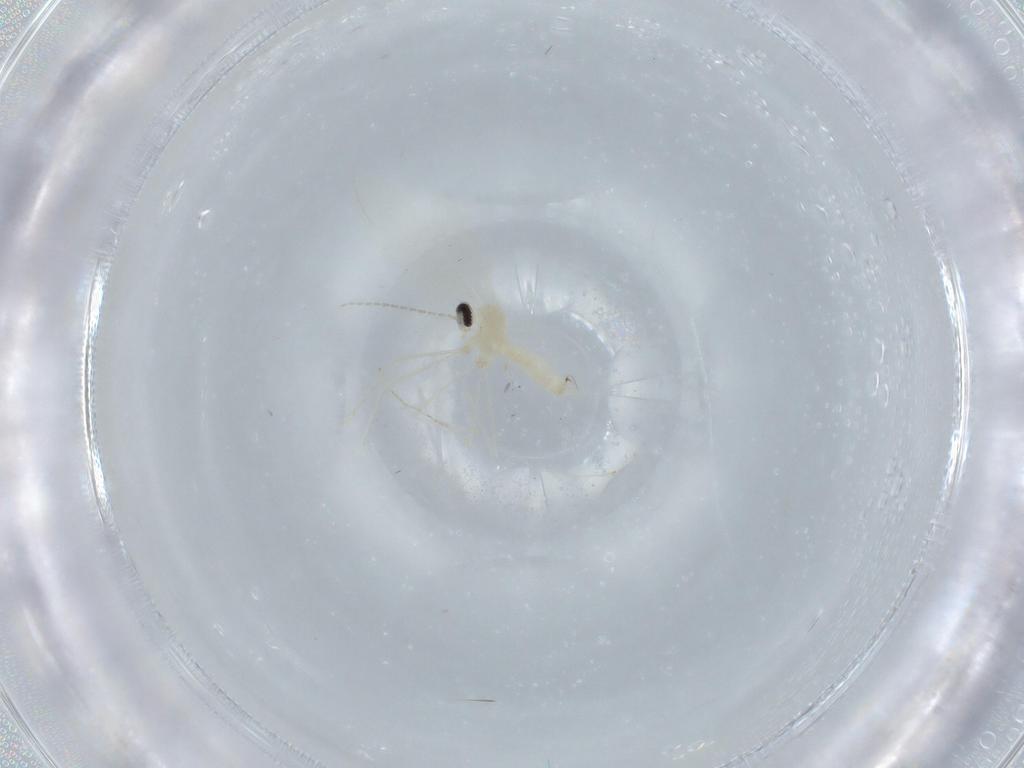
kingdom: Animalia
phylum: Arthropoda
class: Insecta
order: Diptera
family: Cecidomyiidae
